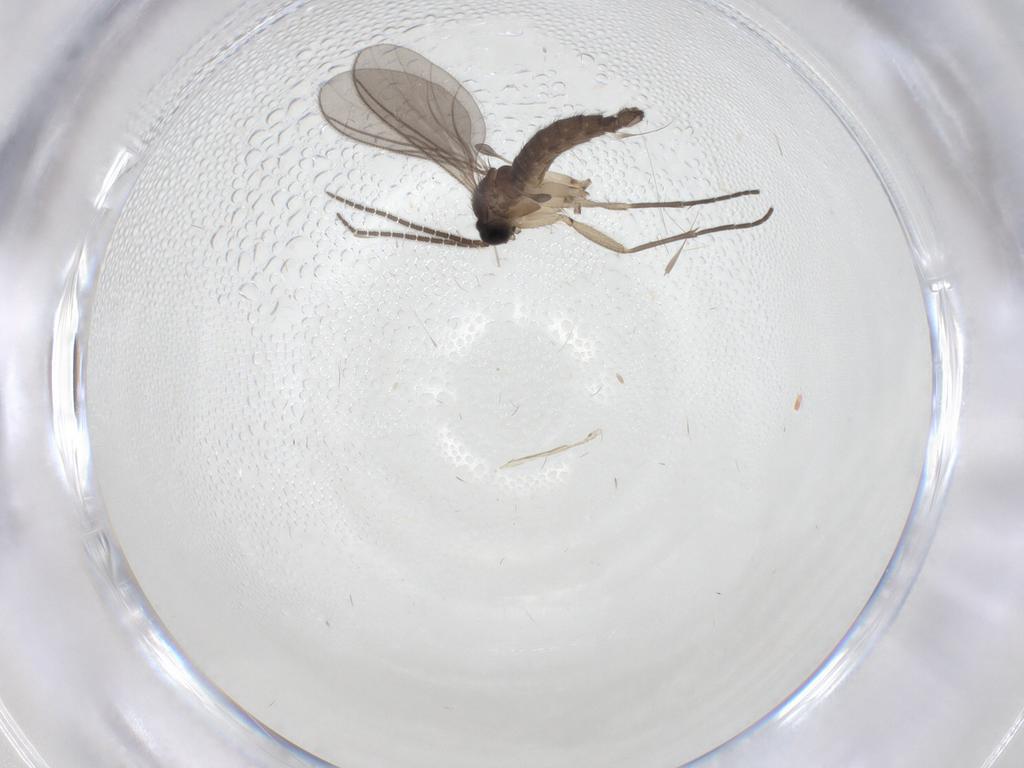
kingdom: Animalia
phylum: Arthropoda
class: Insecta
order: Diptera
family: Sciaridae
